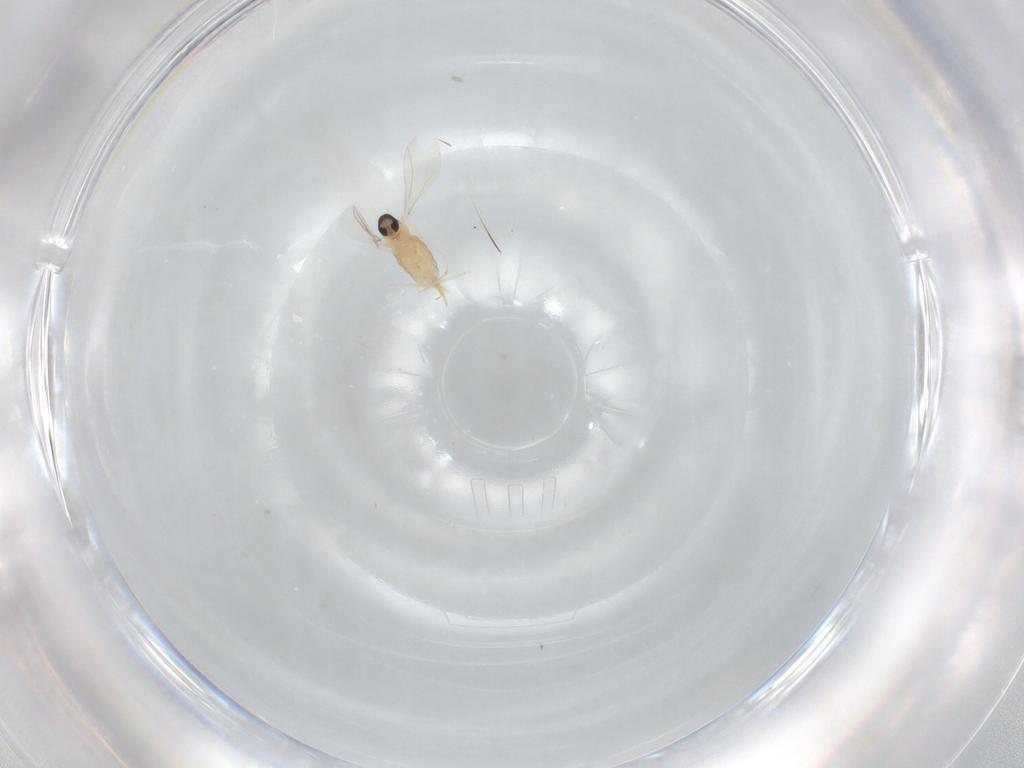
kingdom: Animalia
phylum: Arthropoda
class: Insecta
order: Diptera
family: Cecidomyiidae
